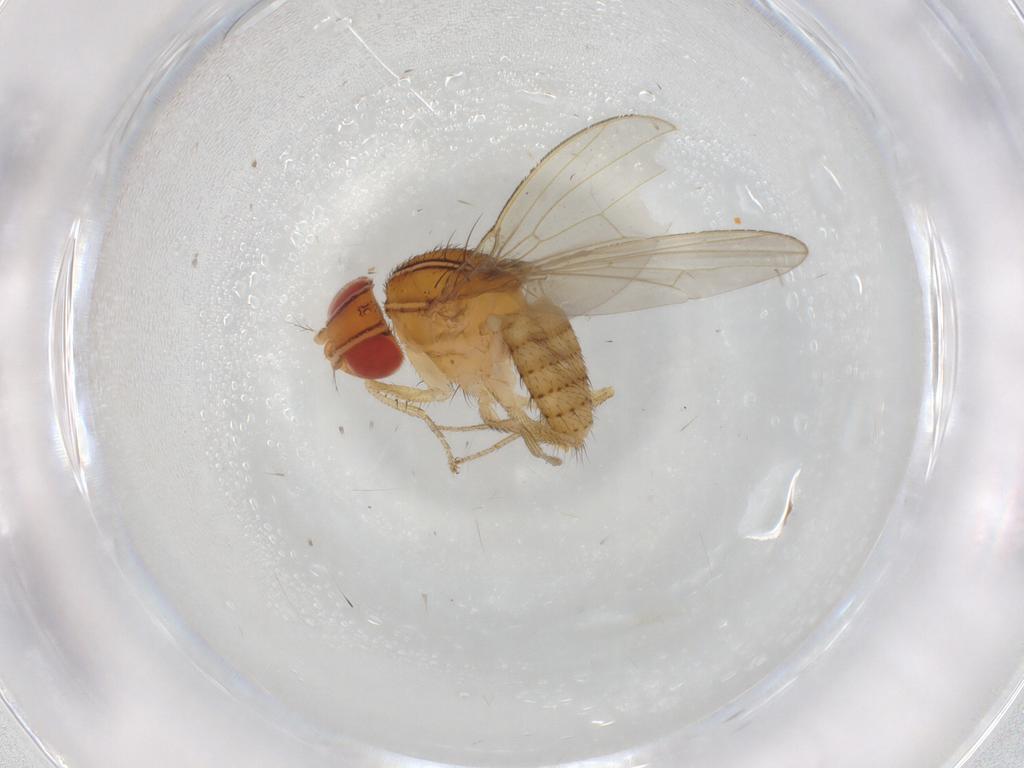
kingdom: Animalia
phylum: Arthropoda
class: Insecta
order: Diptera
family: Drosophilidae
